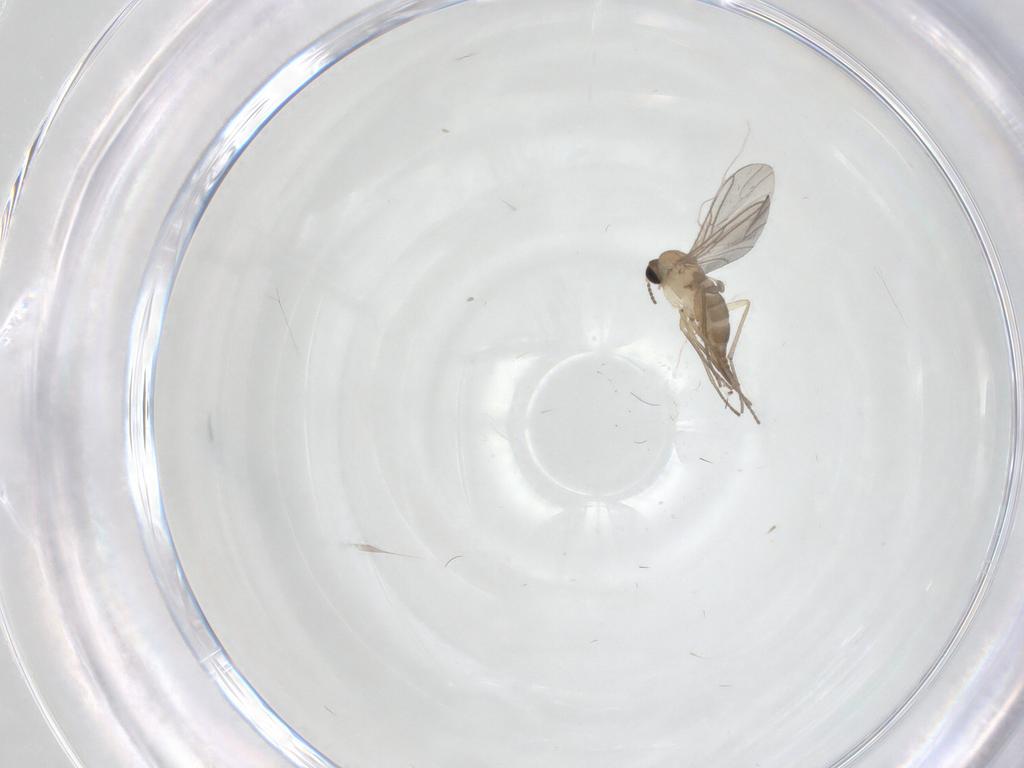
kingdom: Animalia
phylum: Arthropoda
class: Insecta
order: Diptera
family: Sciaridae
